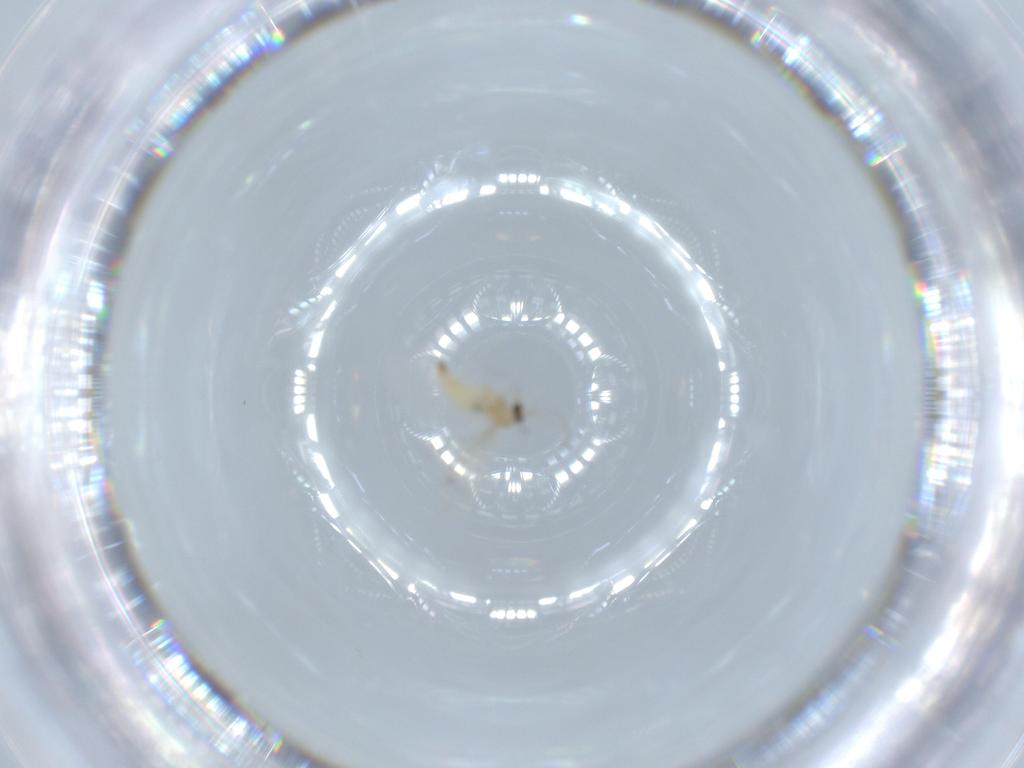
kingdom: Animalia
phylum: Arthropoda
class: Insecta
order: Diptera
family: Cecidomyiidae
